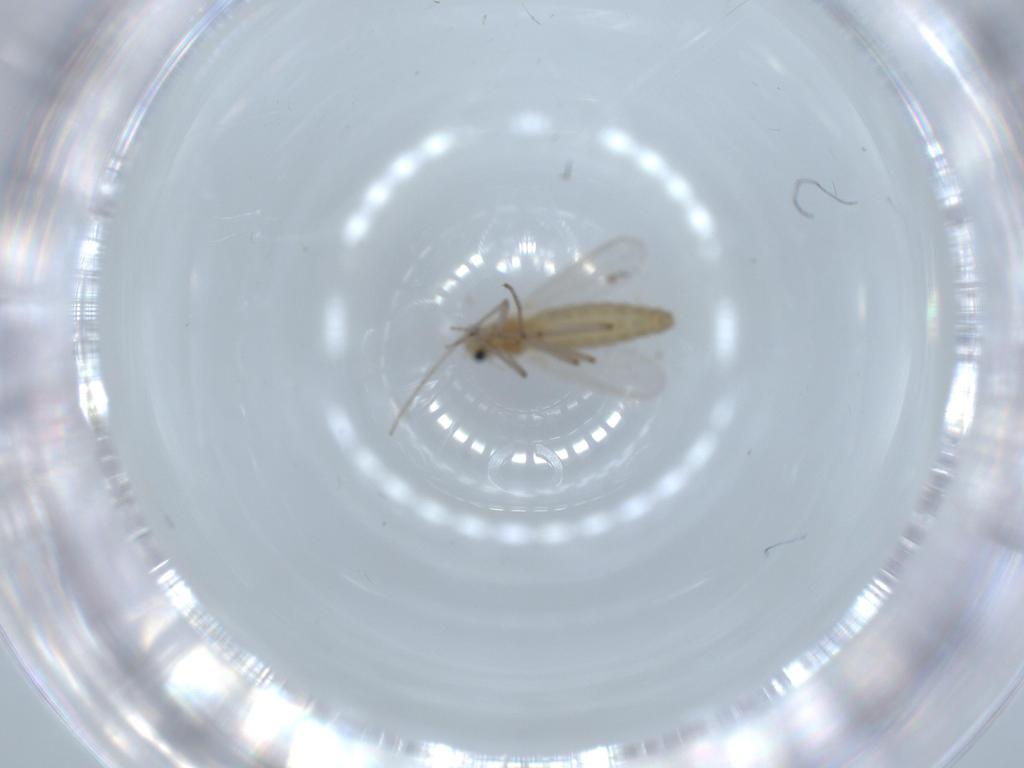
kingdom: Animalia
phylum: Arthropoda
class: Insecta
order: Diptera
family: Chironomidae
